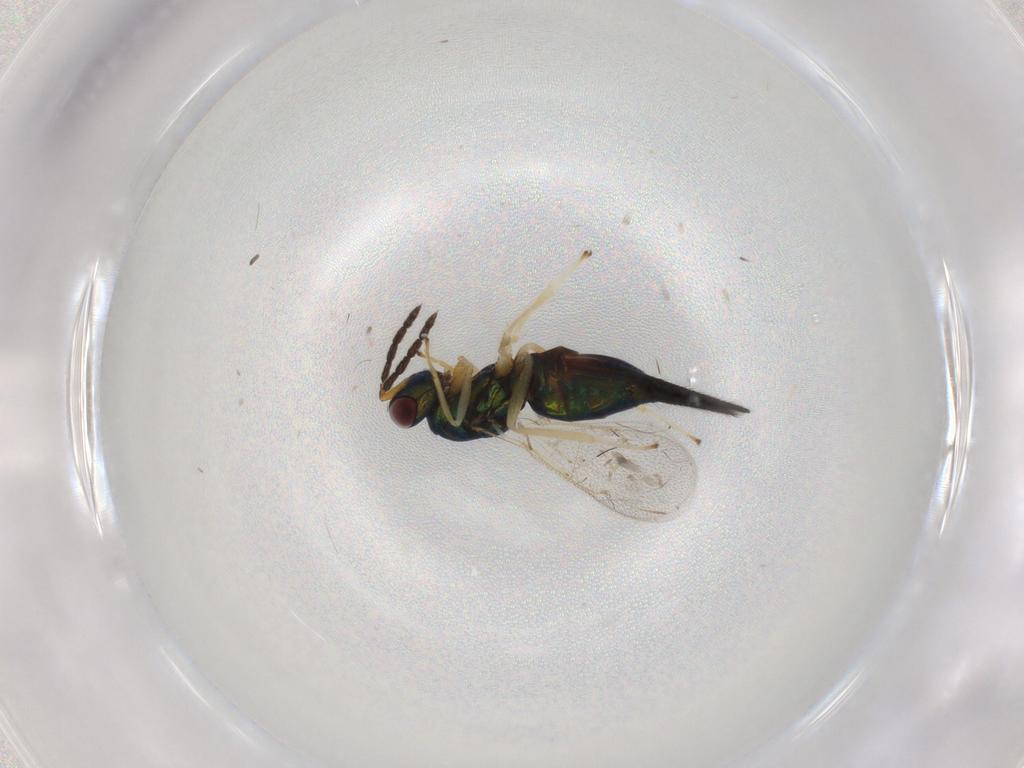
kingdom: Animalia
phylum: Arthropoda
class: Insecta
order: Hymenoptera
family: Eulophidae
